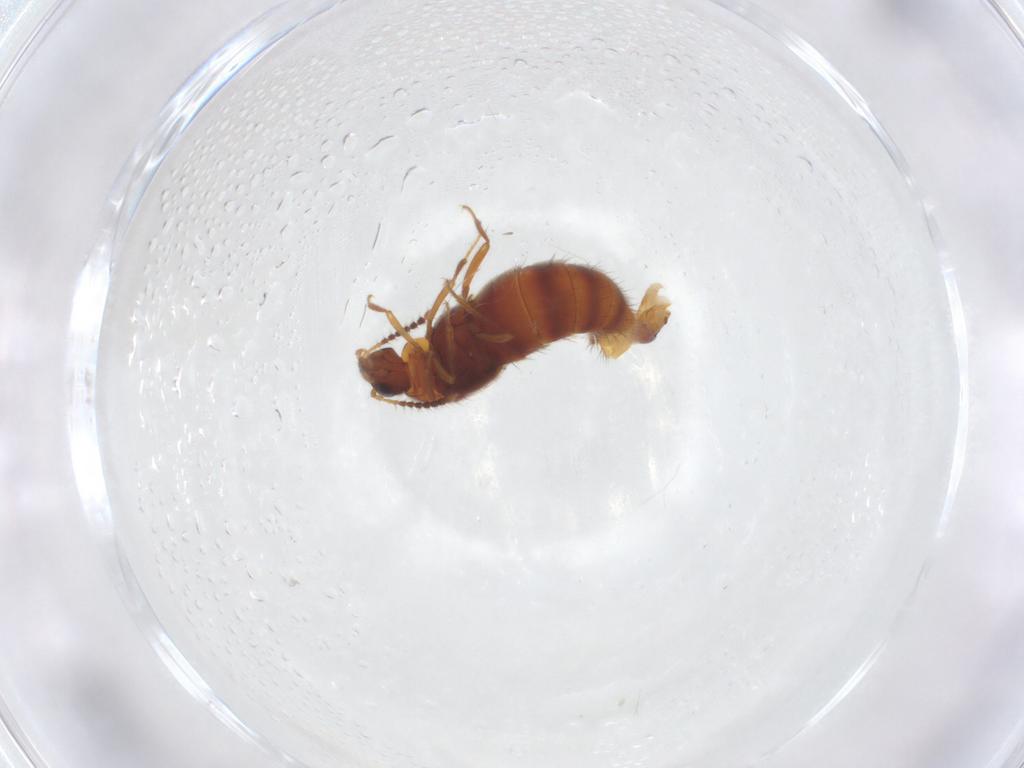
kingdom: Animalia
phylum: Arthropoda
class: Insecta
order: Coleoptera
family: Staphylinidae
